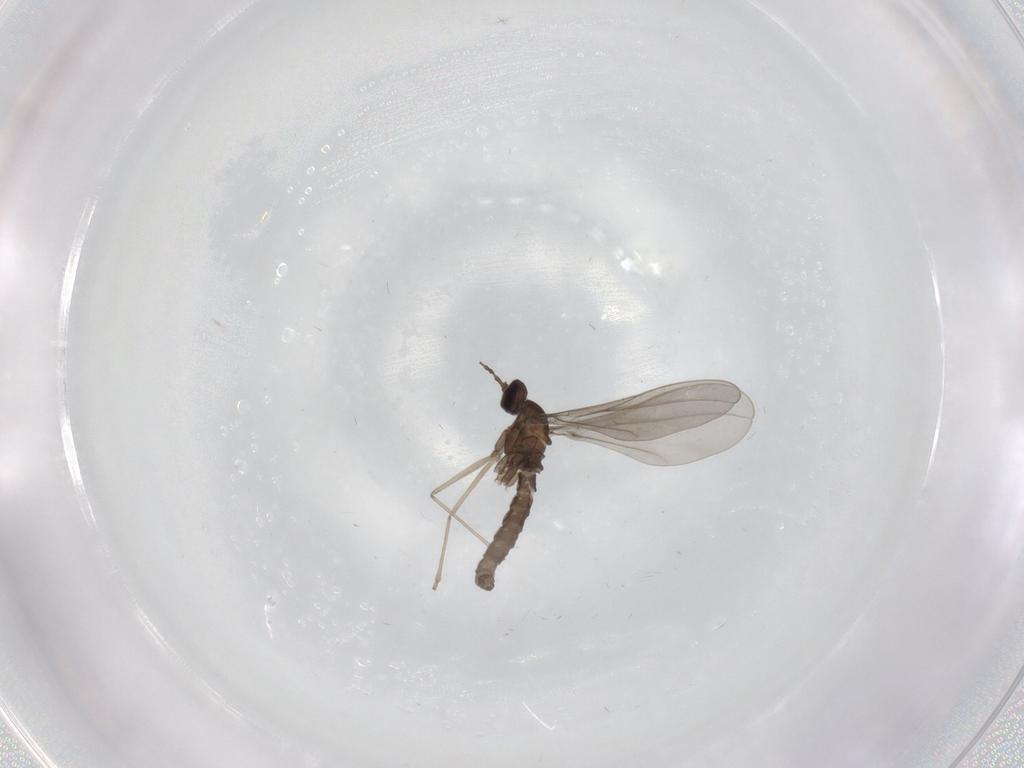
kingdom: Animalia
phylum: Arthropoda
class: Insecta
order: Diptera
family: Cecidomyiidae
